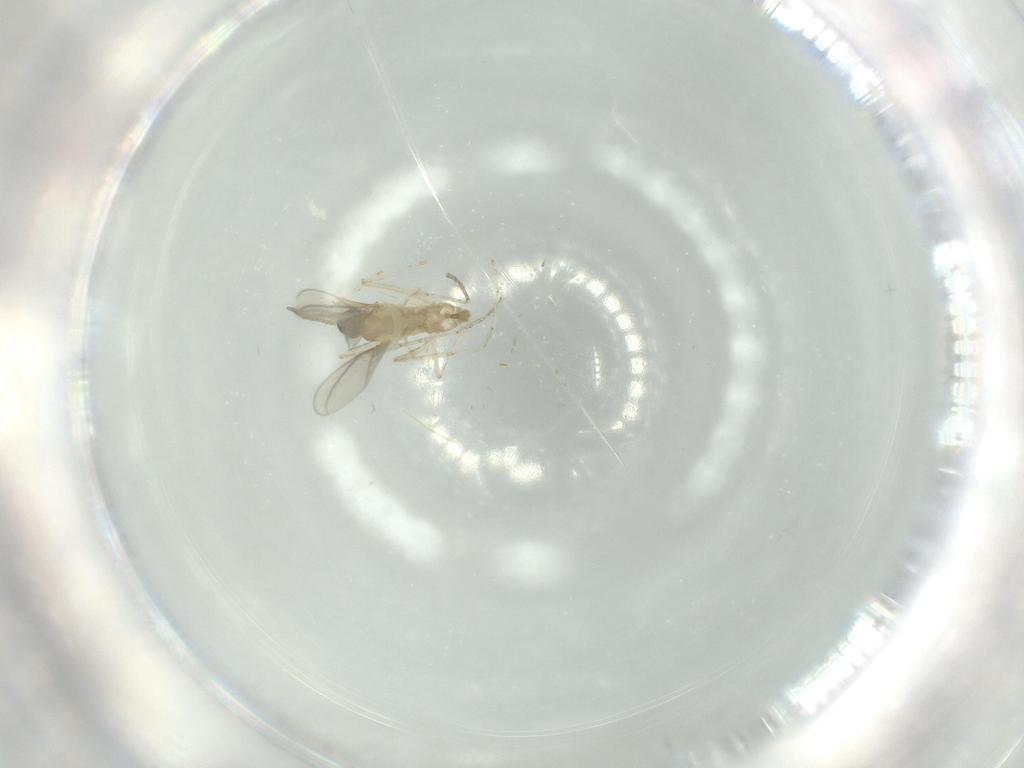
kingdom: Animalia
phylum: Arthropoda
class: Insecta
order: Diptera
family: Cecidomyiidae
